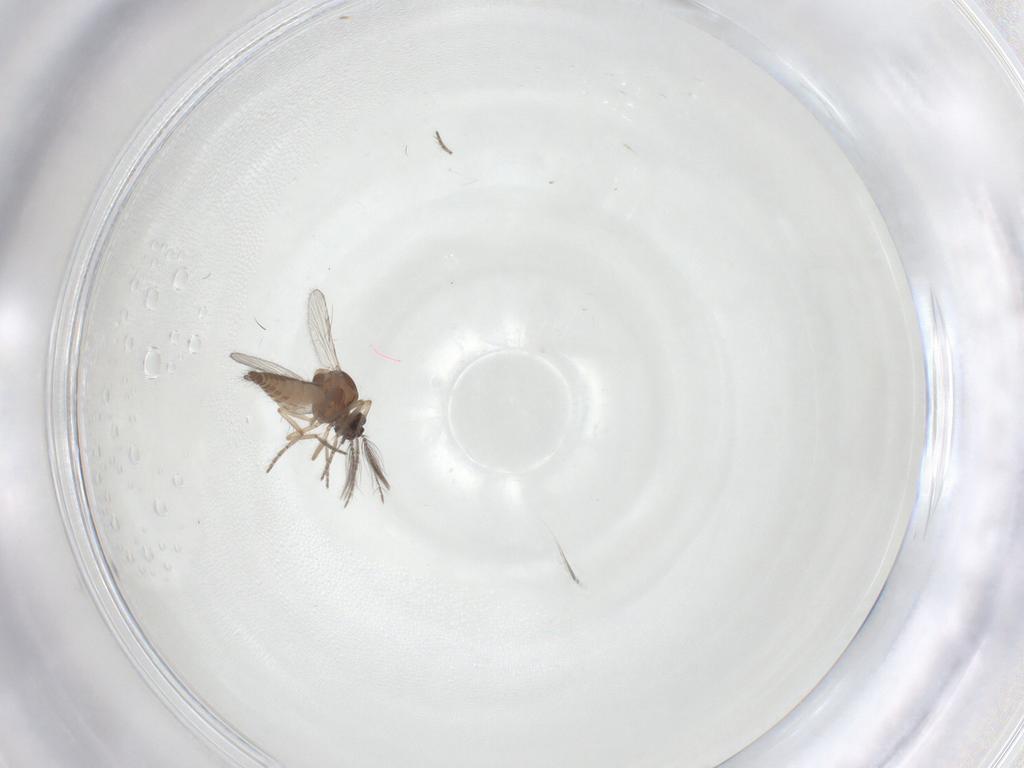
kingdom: Animalia
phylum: Arthropoda
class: Insecta
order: Diptera
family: Ceratopogonidae
